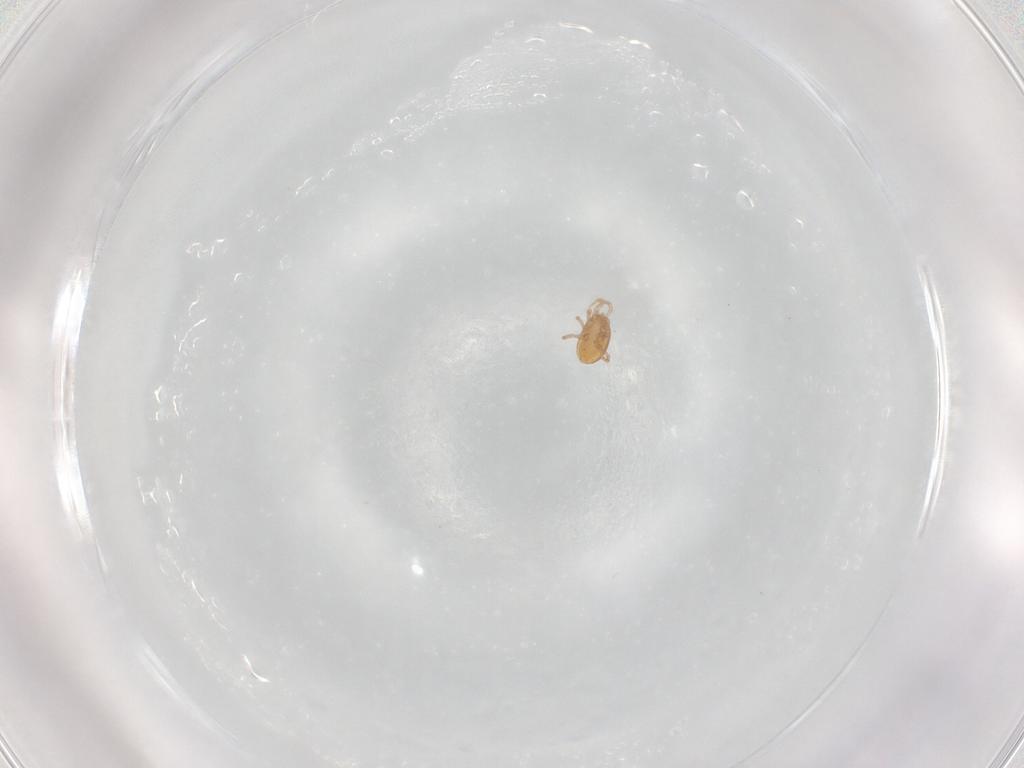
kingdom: Animalia
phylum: Arthropoda
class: Arachnida
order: Mesostigmata
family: Melicharidae
